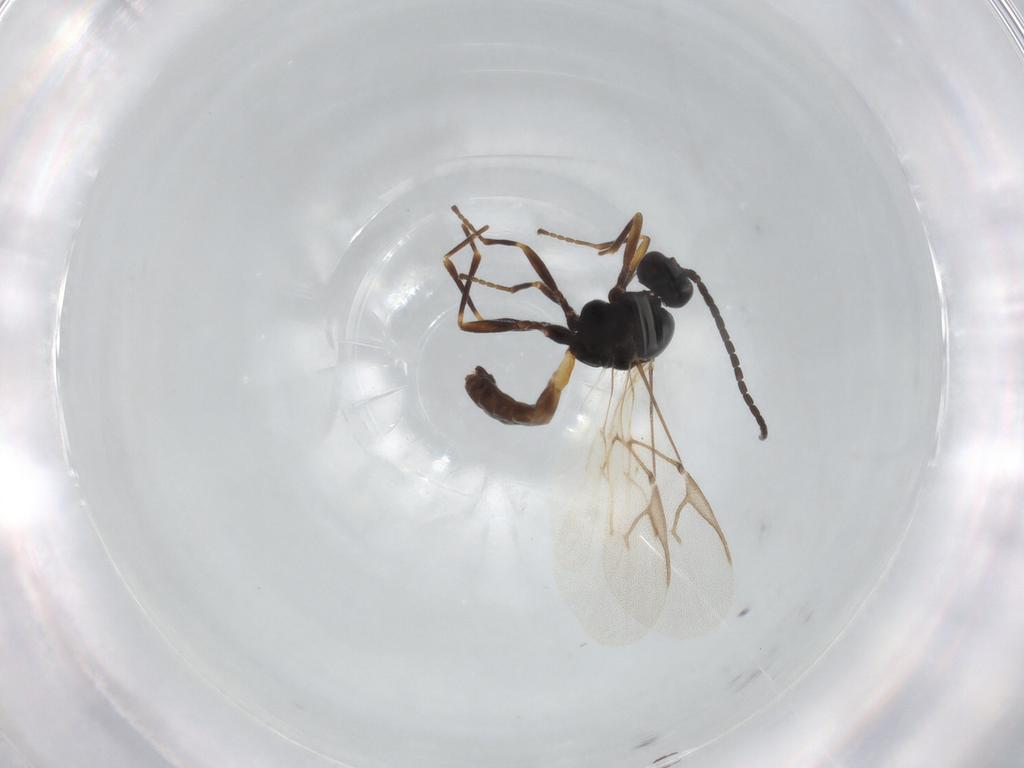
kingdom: Animalia
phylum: Arthropoda
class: Insecta
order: Hymenoptera
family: Braconidae
